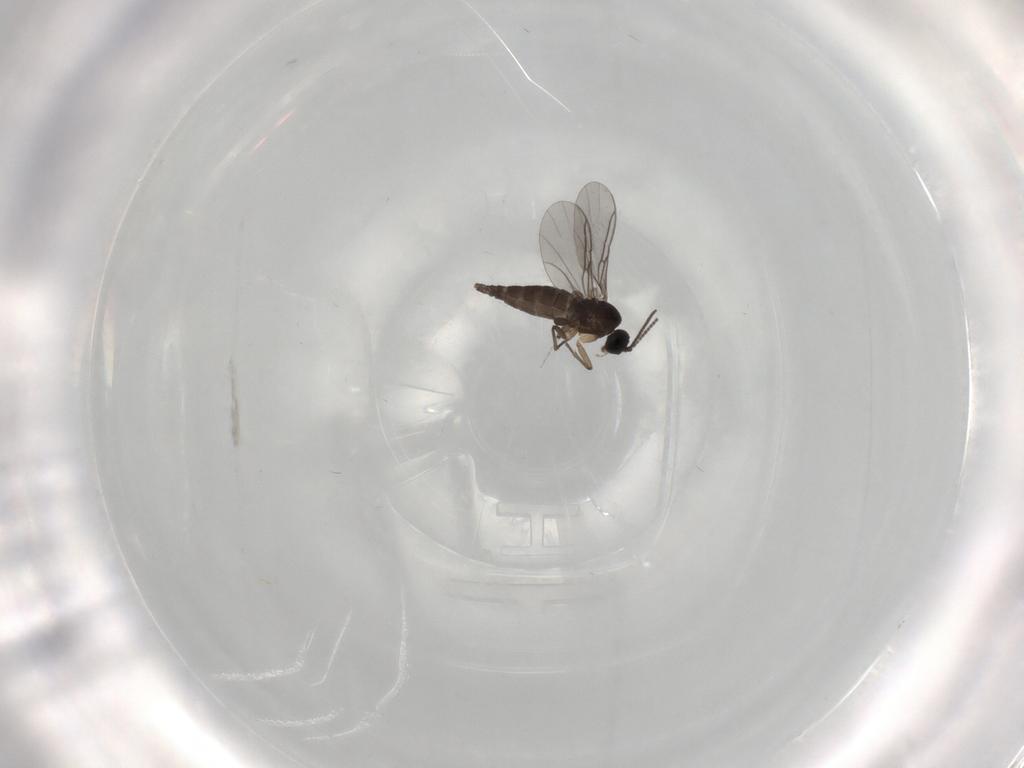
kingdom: Animalia
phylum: Arthropoda
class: Insecta
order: Diptera
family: Sciaridae
